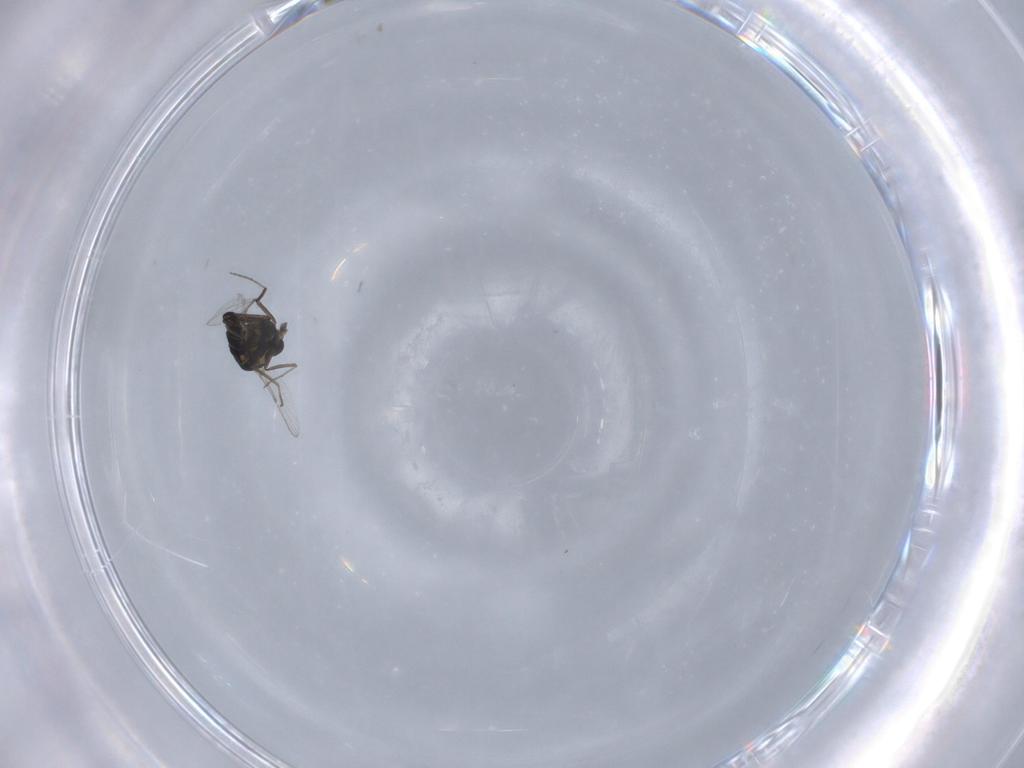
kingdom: Animalia
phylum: Arthropoda
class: Insecta
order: Diptera
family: Ceratopogonidae
